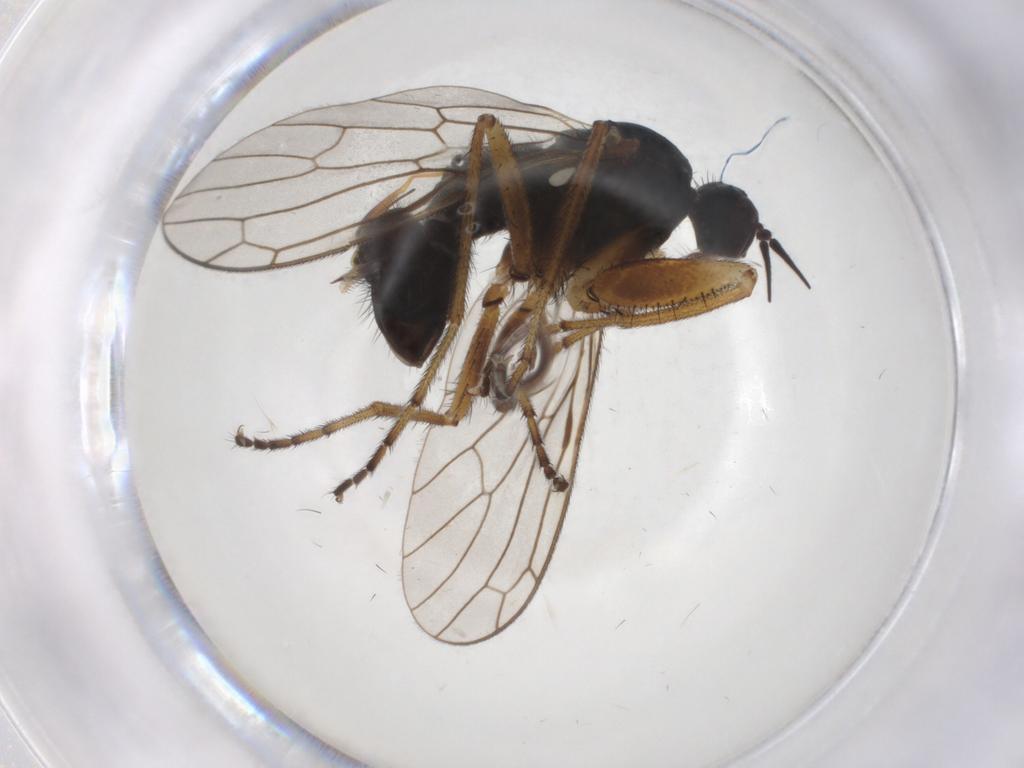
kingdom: Animalia
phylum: Arthropoda
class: Insecta
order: Diptera
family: Empididae
